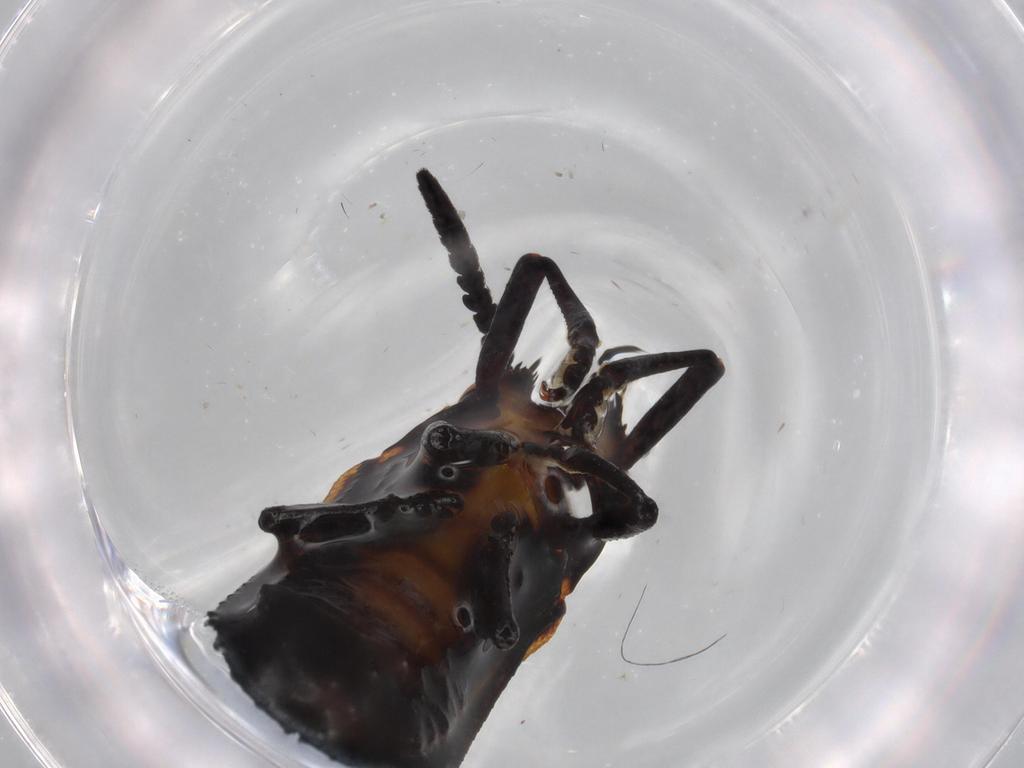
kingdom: Animalia
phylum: Arthropoda
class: Insecta
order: Coleoptera
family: Chrysomelidae
